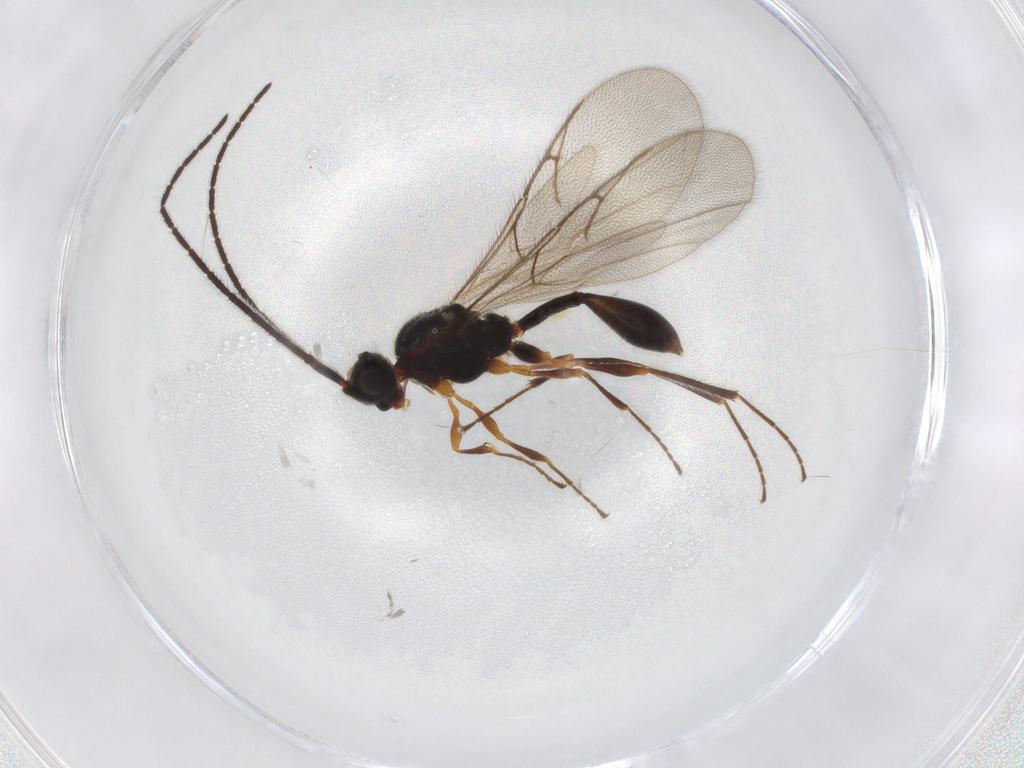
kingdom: Animalia
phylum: Arthropoda
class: Insecta
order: Hymenoptera
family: Diapriidae
